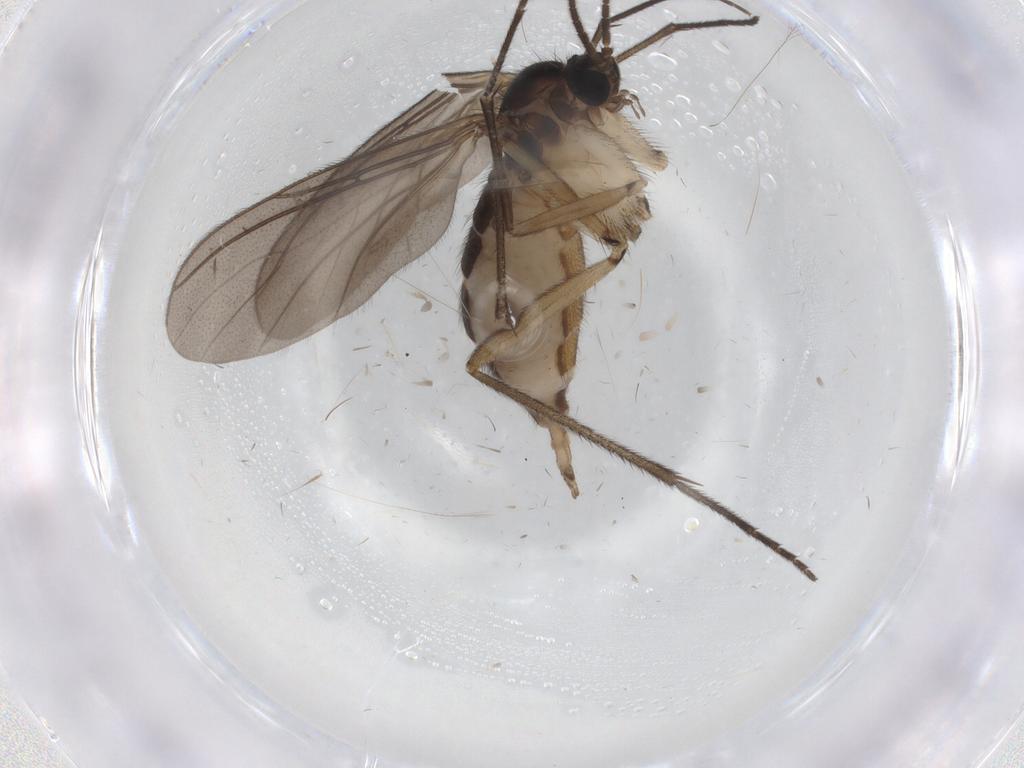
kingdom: Animalia
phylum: Arthropoda
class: Insecta
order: Diptera
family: Sciaridae
